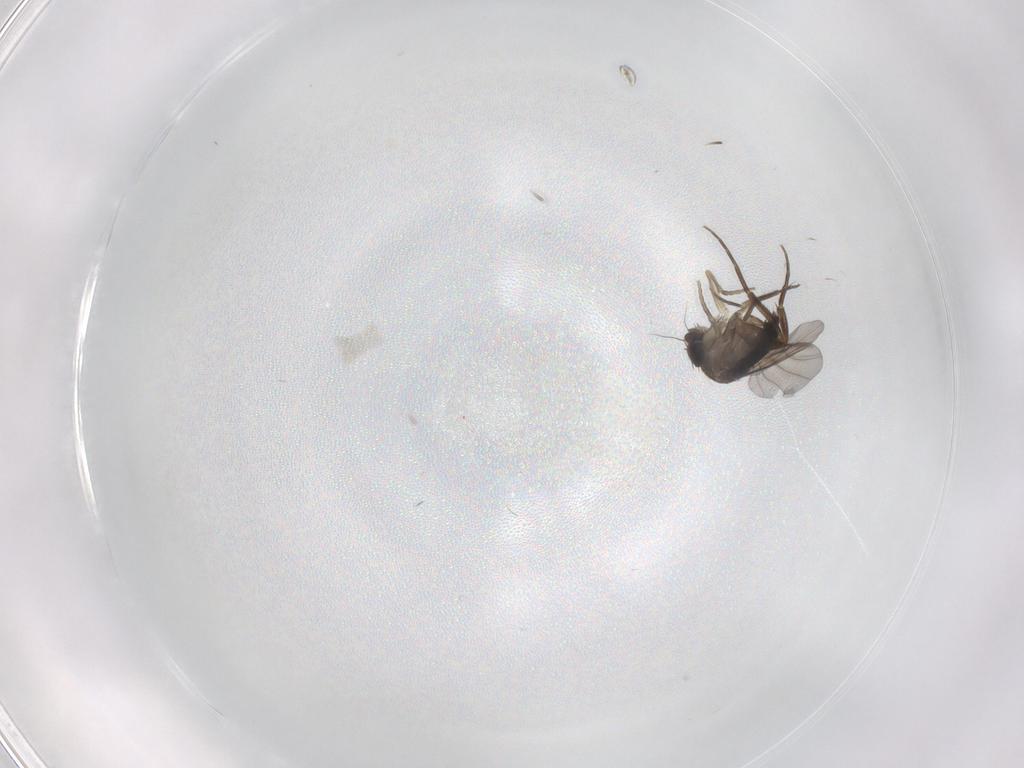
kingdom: Animalia
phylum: Arthropoda
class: Insecta
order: Diptera
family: Phoridae
